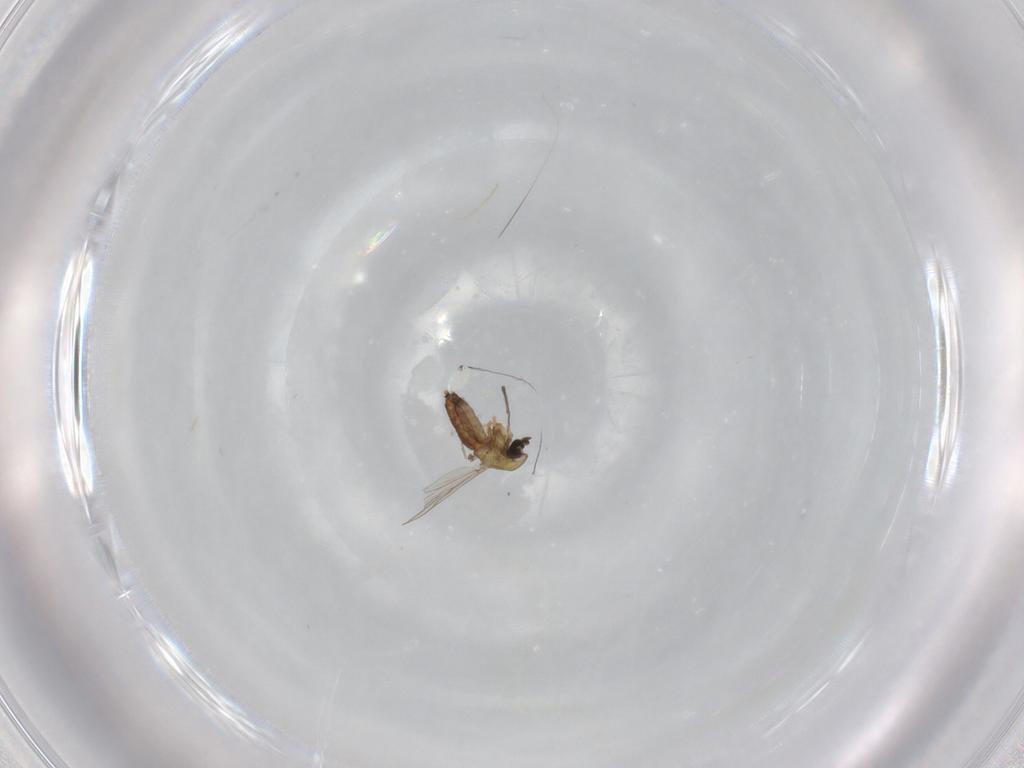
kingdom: Animalia
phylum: Arthropoda
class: Insecta
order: Diptera
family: Chironomidae
